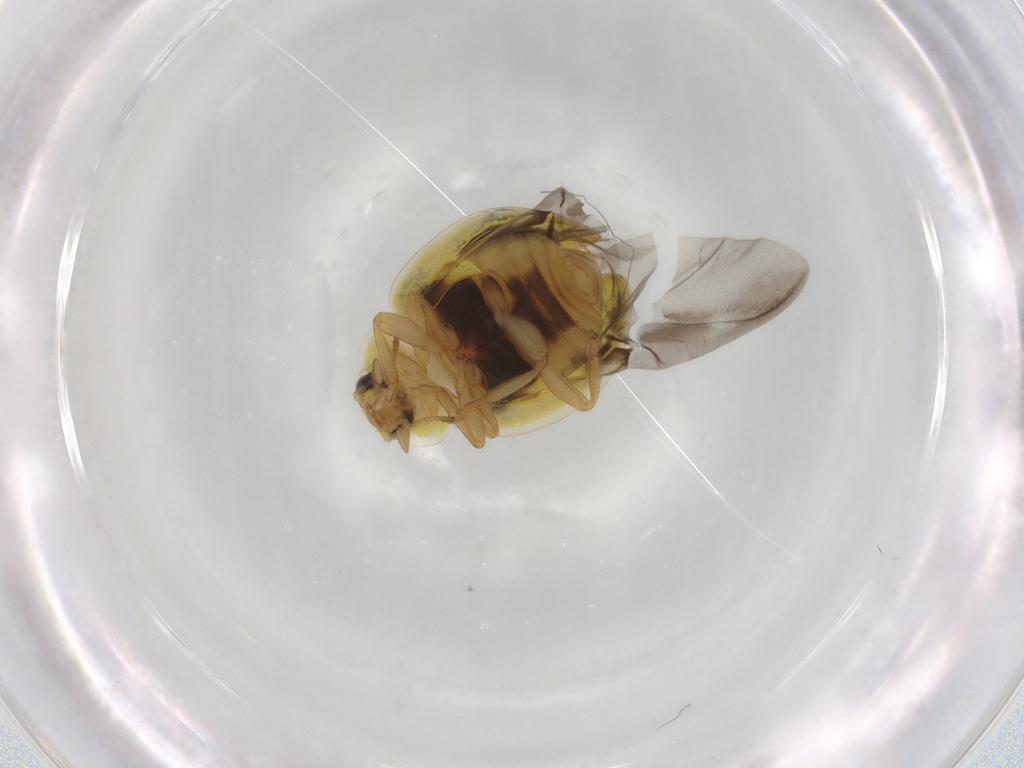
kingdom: Animalia
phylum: Arthropoda
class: Insecta
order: Coleoptera
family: Coccinellidae
